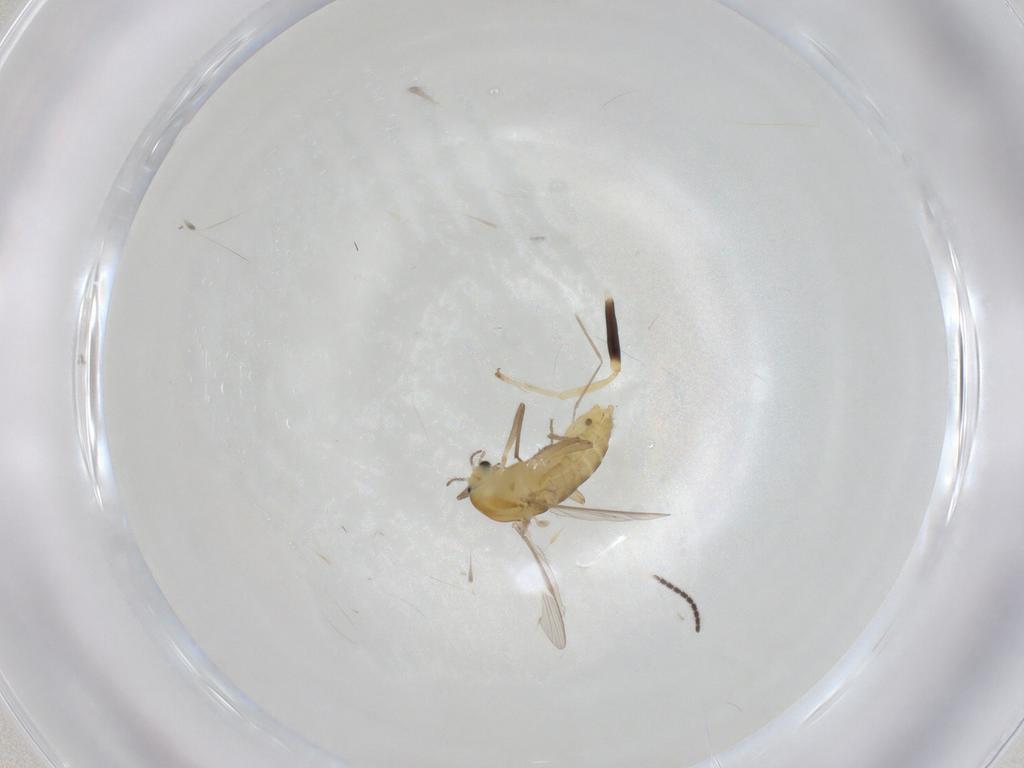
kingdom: Animalia
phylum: Arthropoda
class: Insecta
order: Diptera
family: Chironomidae
